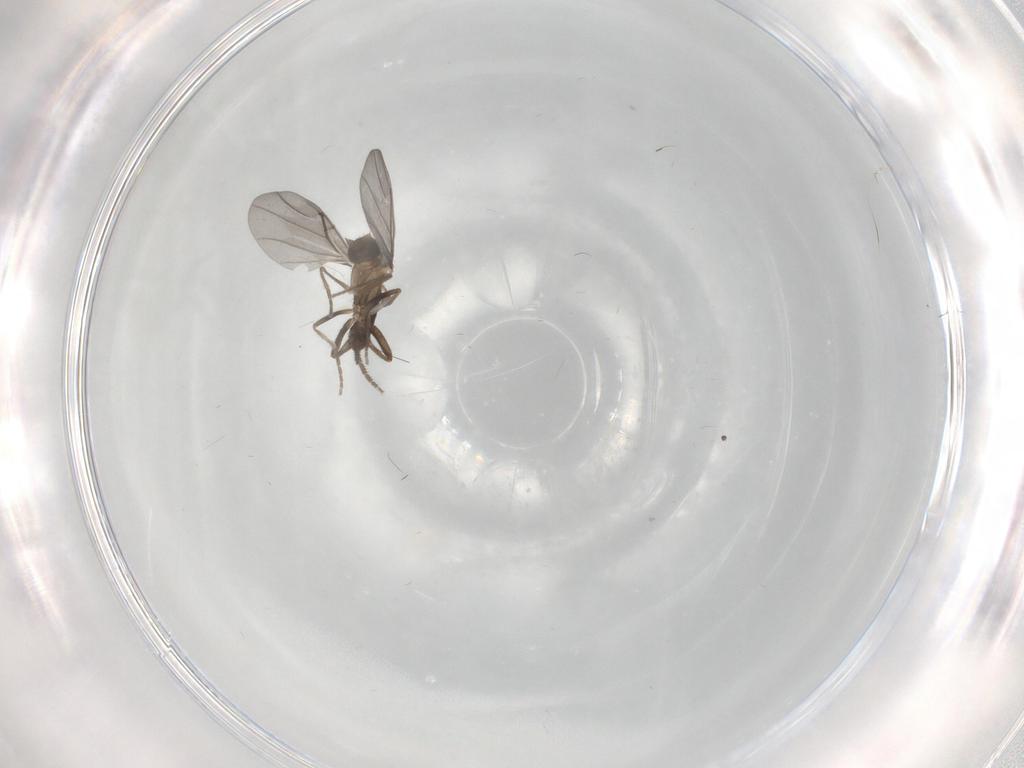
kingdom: Animalia
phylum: Arthropoda
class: Insecta
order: Diptera
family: Phoridae
